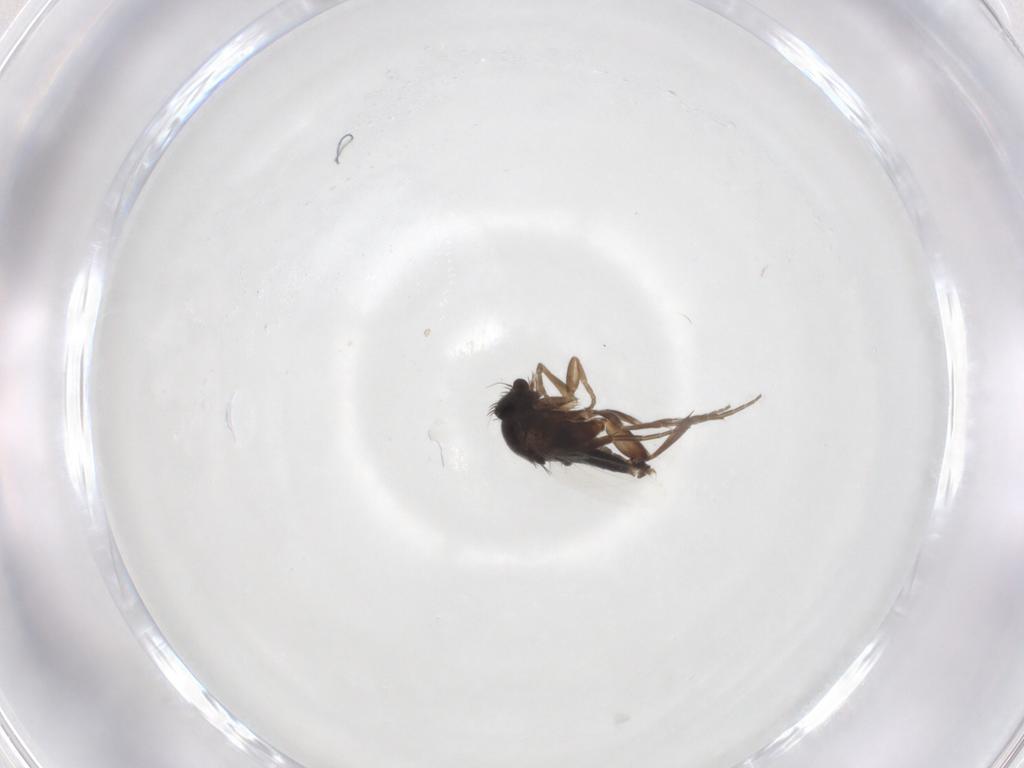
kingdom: Animalia
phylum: Arthropoda
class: Insecta
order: Diptera
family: Phoridae
